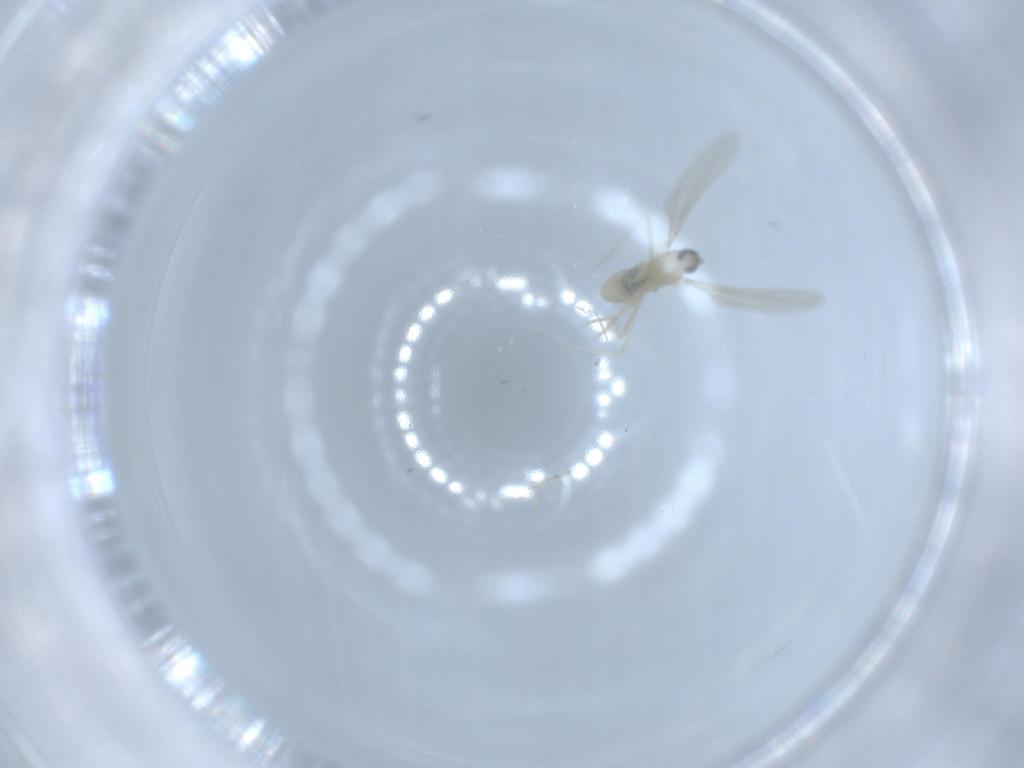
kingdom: Animalia
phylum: Arthropoda
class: Insecta
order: Diptera
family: Cecidomyiidae
